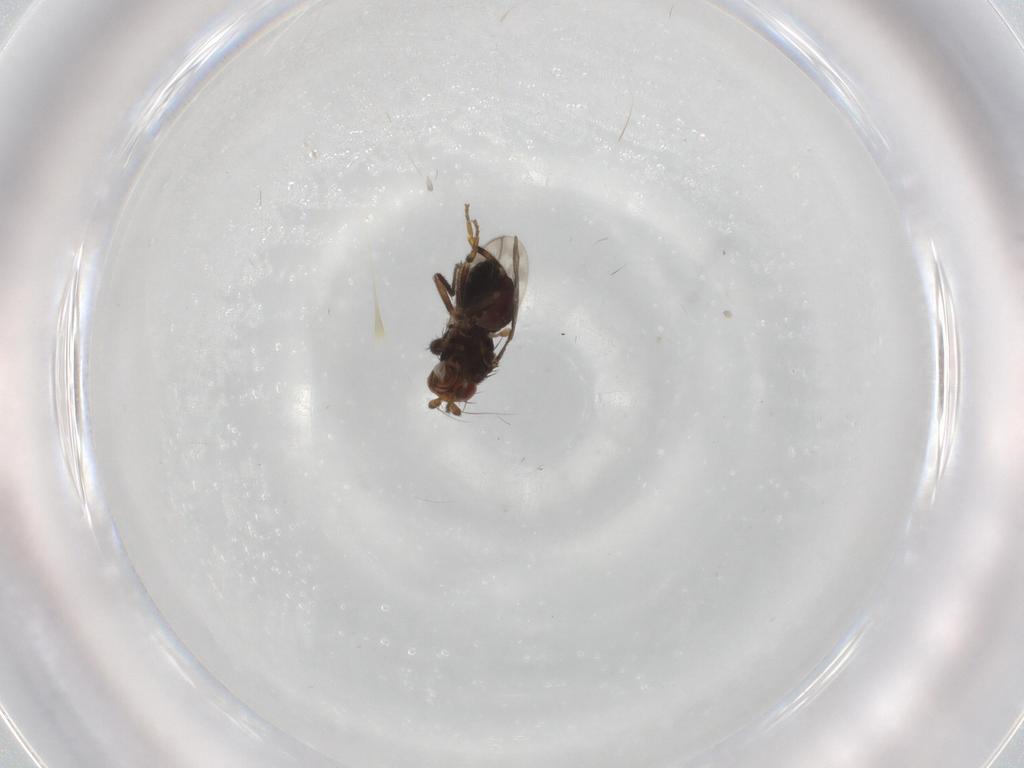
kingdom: Animalia
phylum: Arthropoda
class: Insecta
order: Diptera
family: Sphaeroceridae
